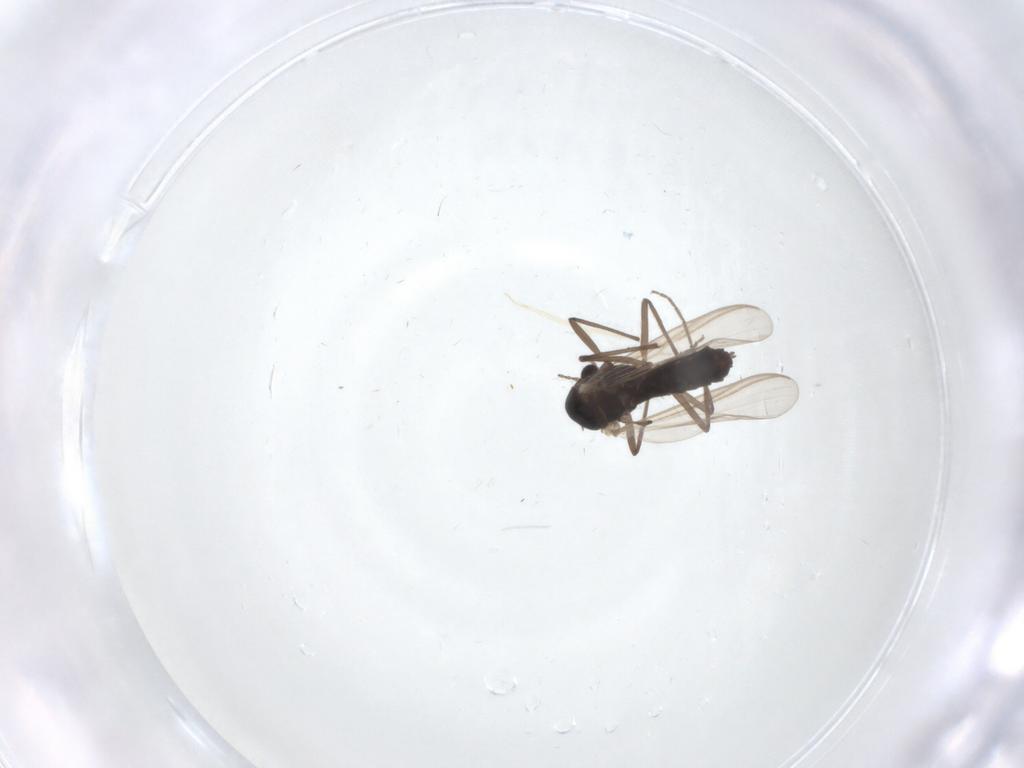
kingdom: Animalia
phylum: Arthropoda
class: Insecta
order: Diptera
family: Chironomidae
